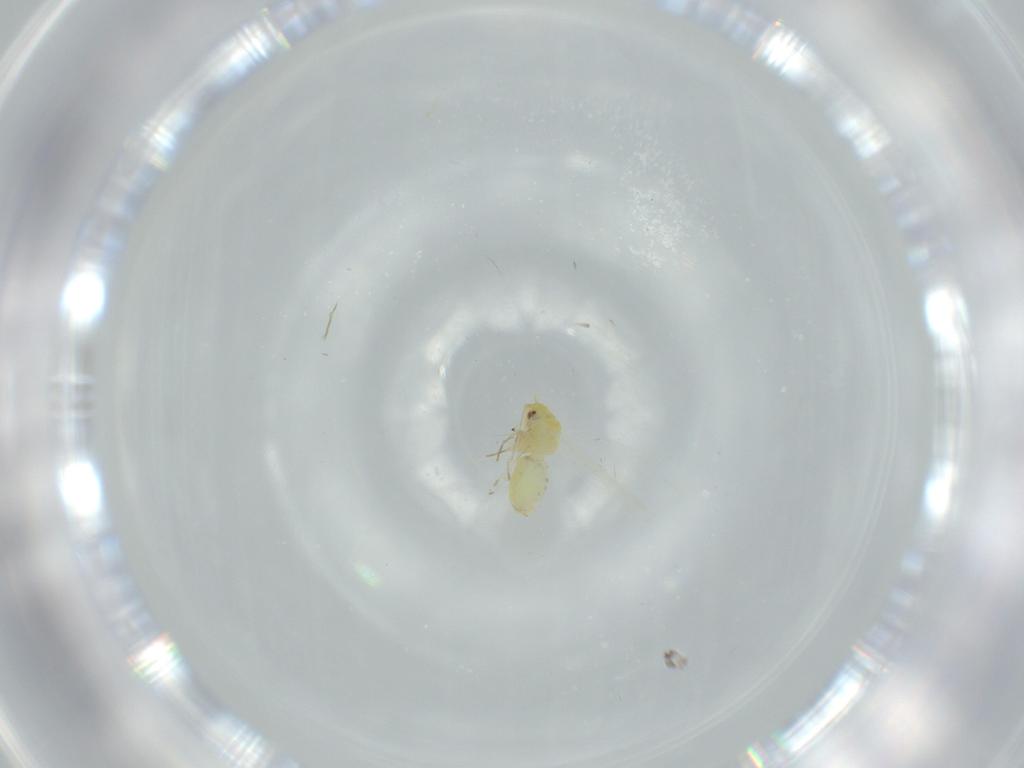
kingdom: Animalia
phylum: Arthropoda
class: Insecta
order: Hemiptera
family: Aleyrodidae
